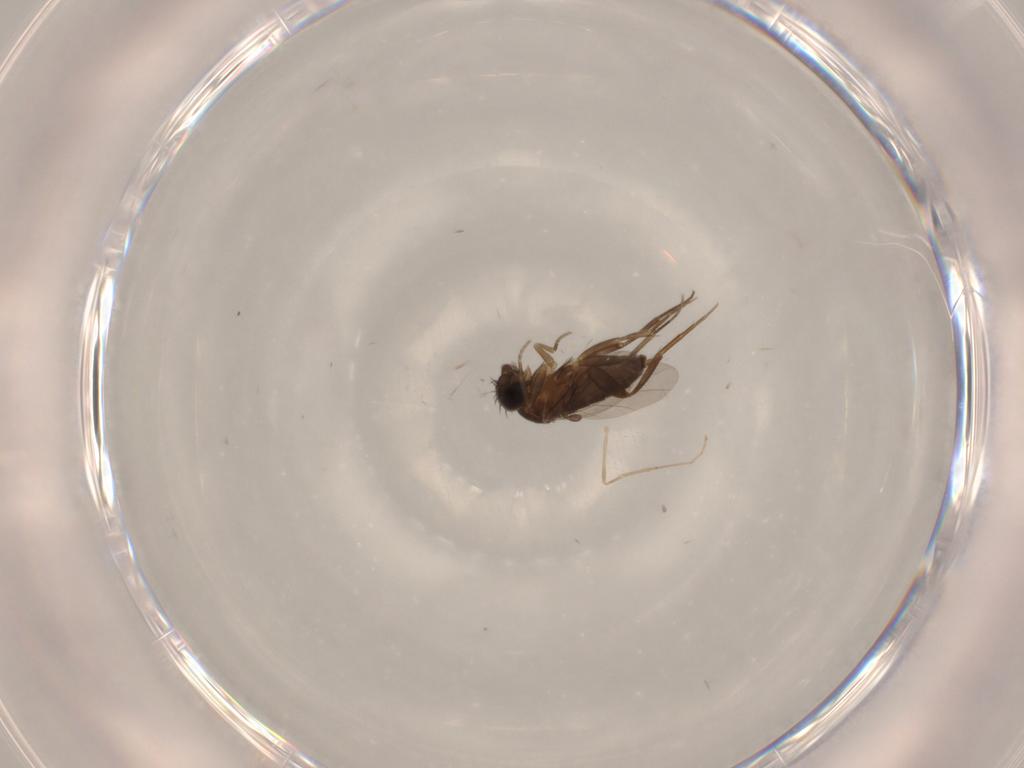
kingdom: Animalia
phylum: Arthropoda
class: Insecta
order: Diptera
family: Cecidomyiidae
